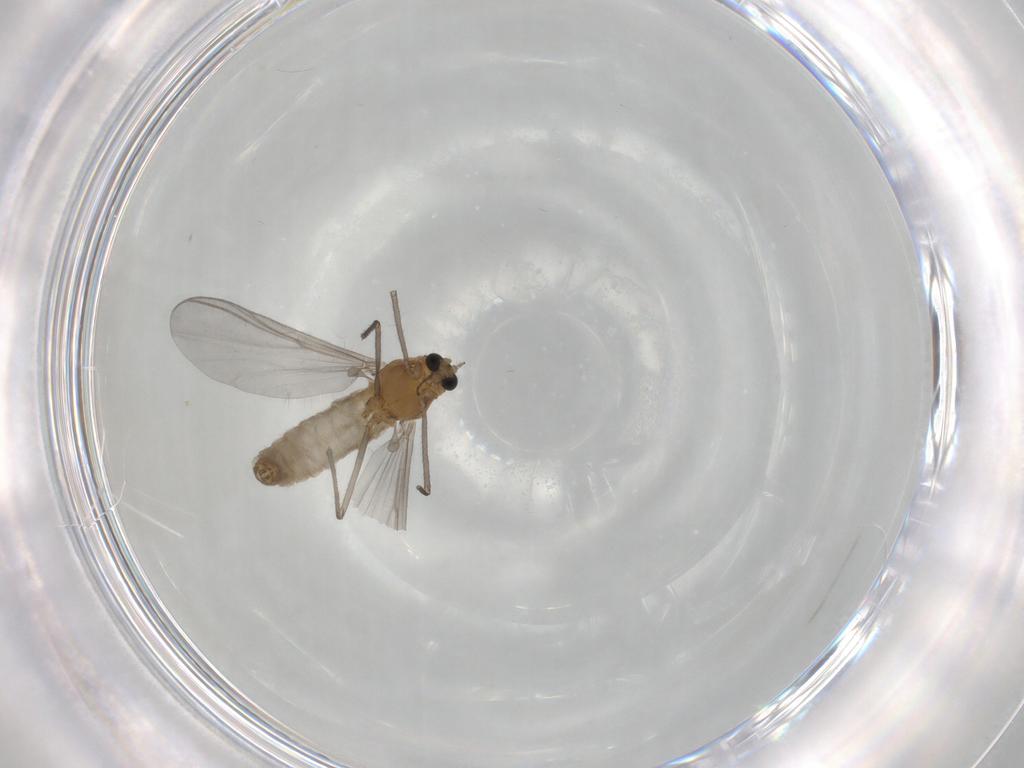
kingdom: Animalia
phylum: Arthropoda
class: Insecta
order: Diptera
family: Chironomidae
